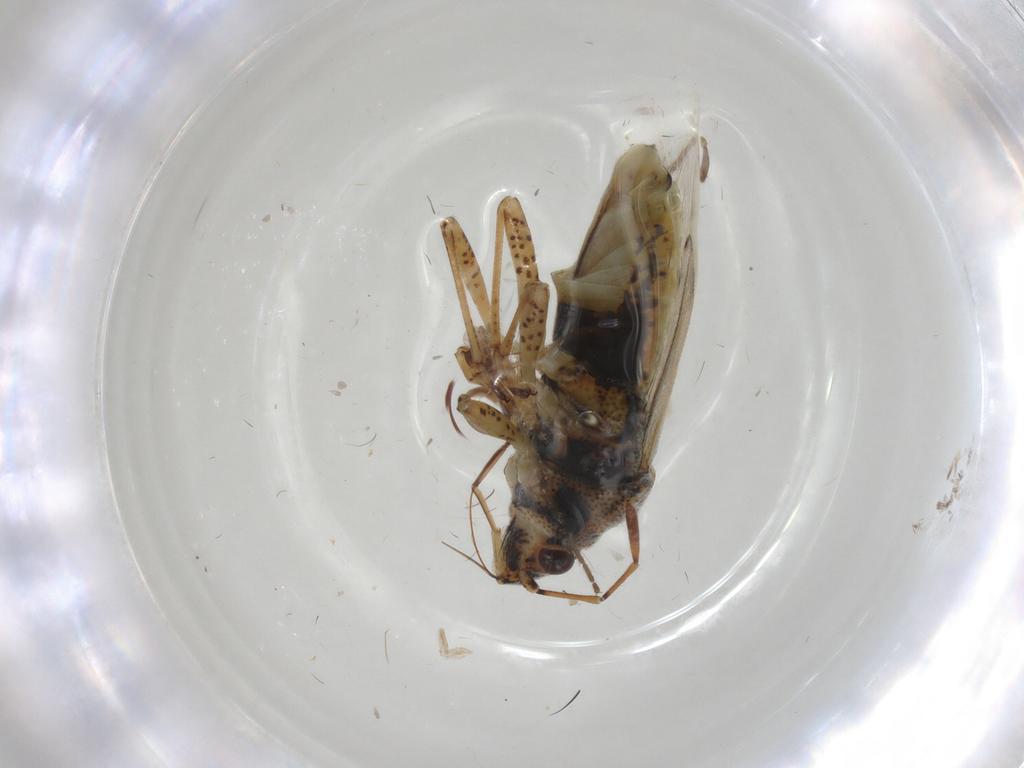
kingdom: Animalia
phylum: Arthropoda
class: Insecta
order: Hemiptera
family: Lygaeidae
